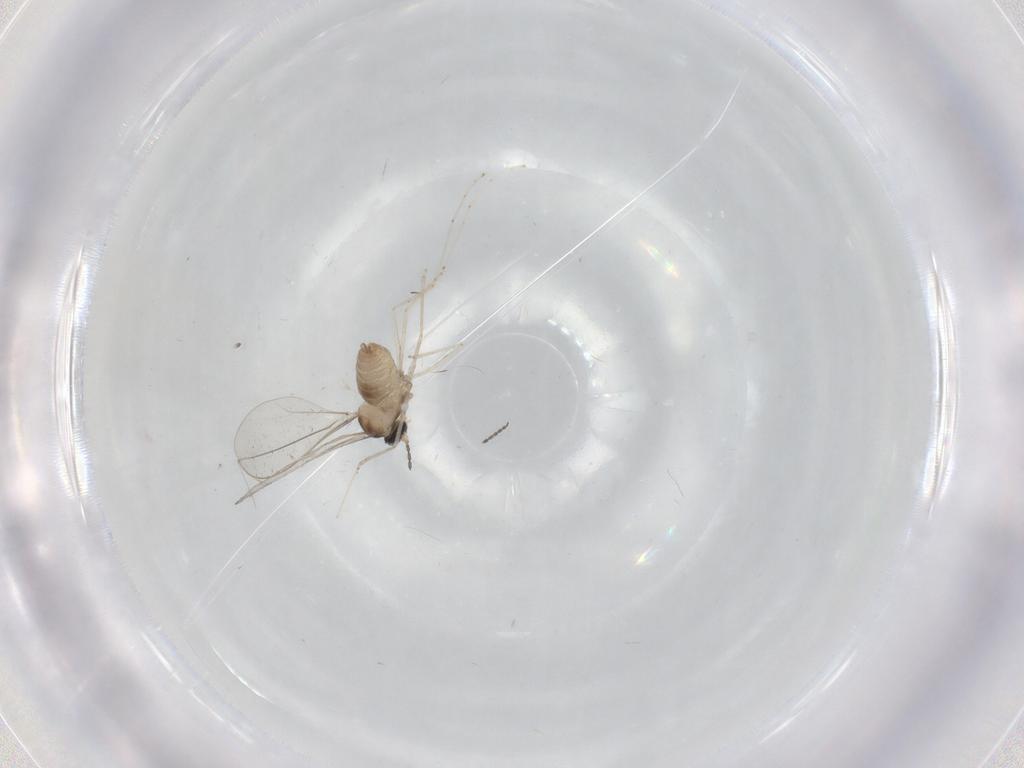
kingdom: Animalia
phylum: Arthropoda
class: Insecta
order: Diptera
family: Cecidomyiidae
